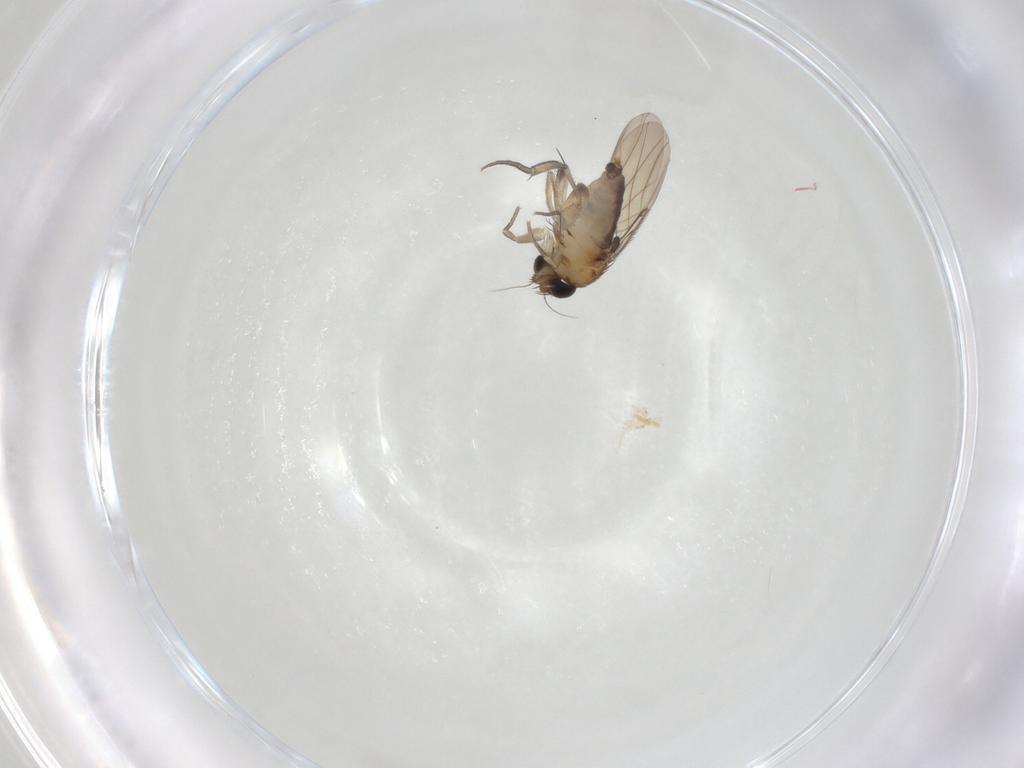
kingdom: Animalia
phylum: Arthropoda
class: Insecta
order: Diptera
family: Phoridae
